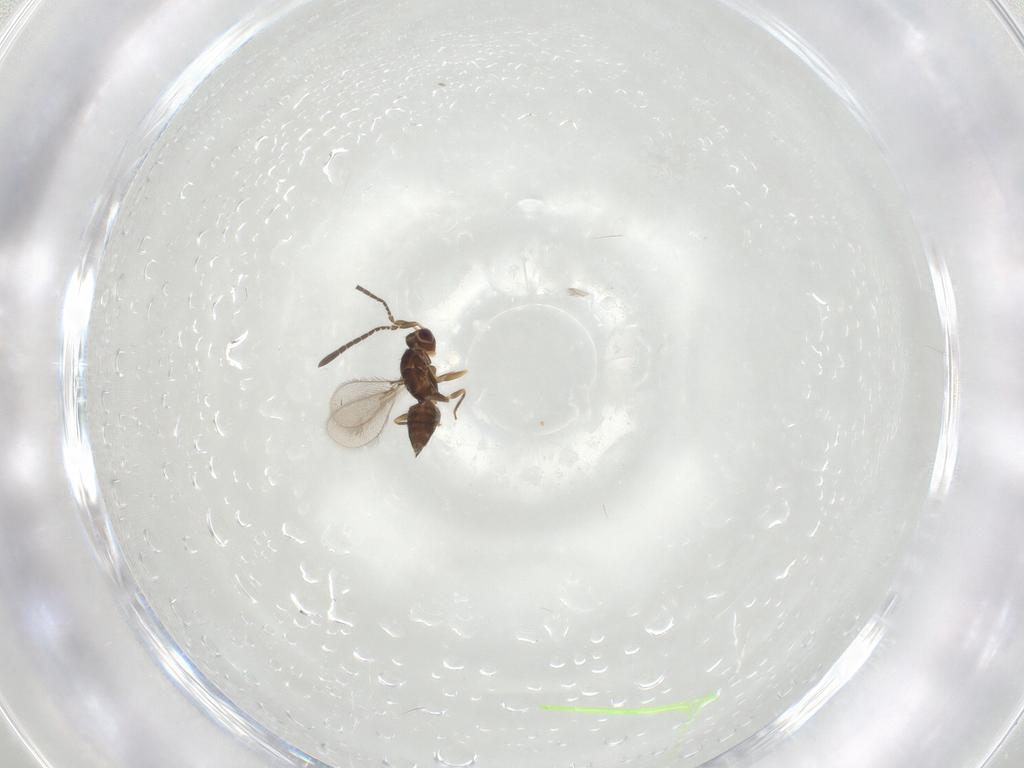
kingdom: Animalia
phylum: Arthropoda
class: Insecta
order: Hymenoptera
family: Mymaridae
